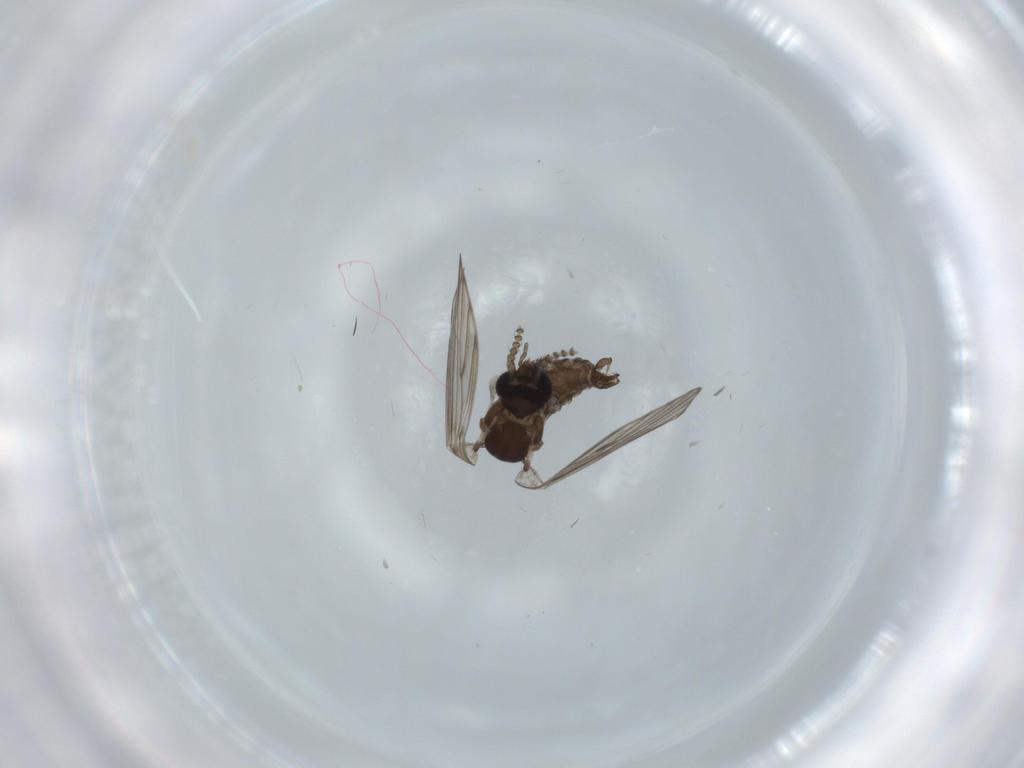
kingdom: Animalia
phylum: Arthropoda
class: Insecta
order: Diptera
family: Psychodidae
